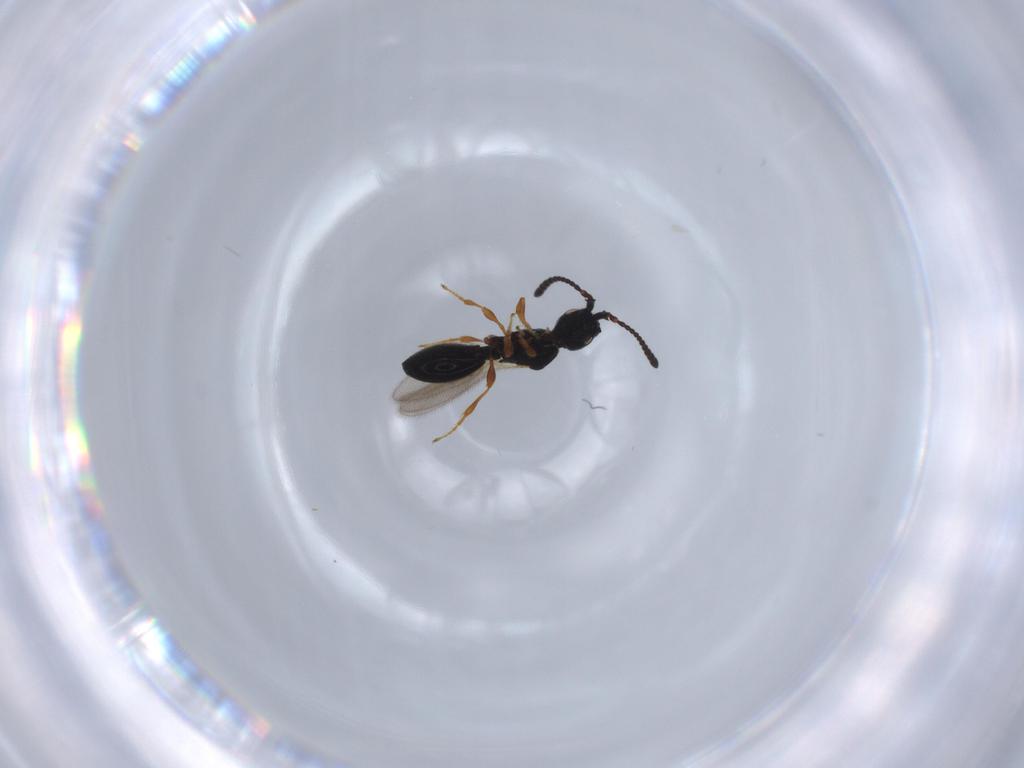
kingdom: Animalia
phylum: Arthropoda
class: Insecta
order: Hymenoptera
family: Diapriidae
